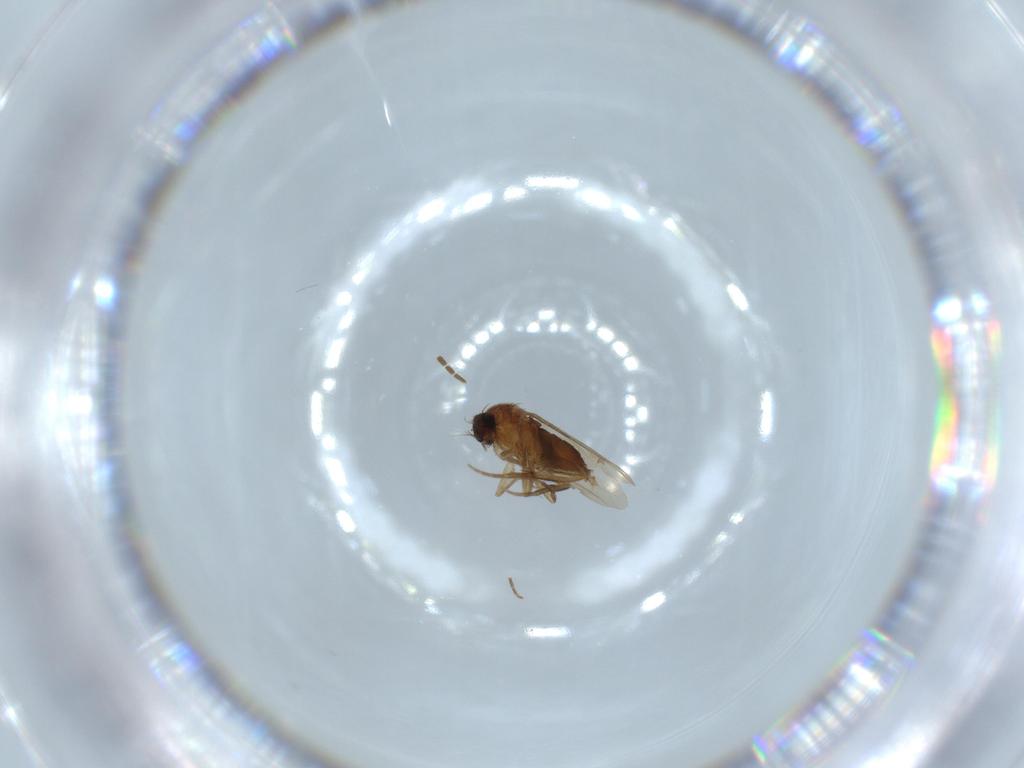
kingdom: Animalia
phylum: Arthropoda
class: Insecta
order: Diptera
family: Phoridae
